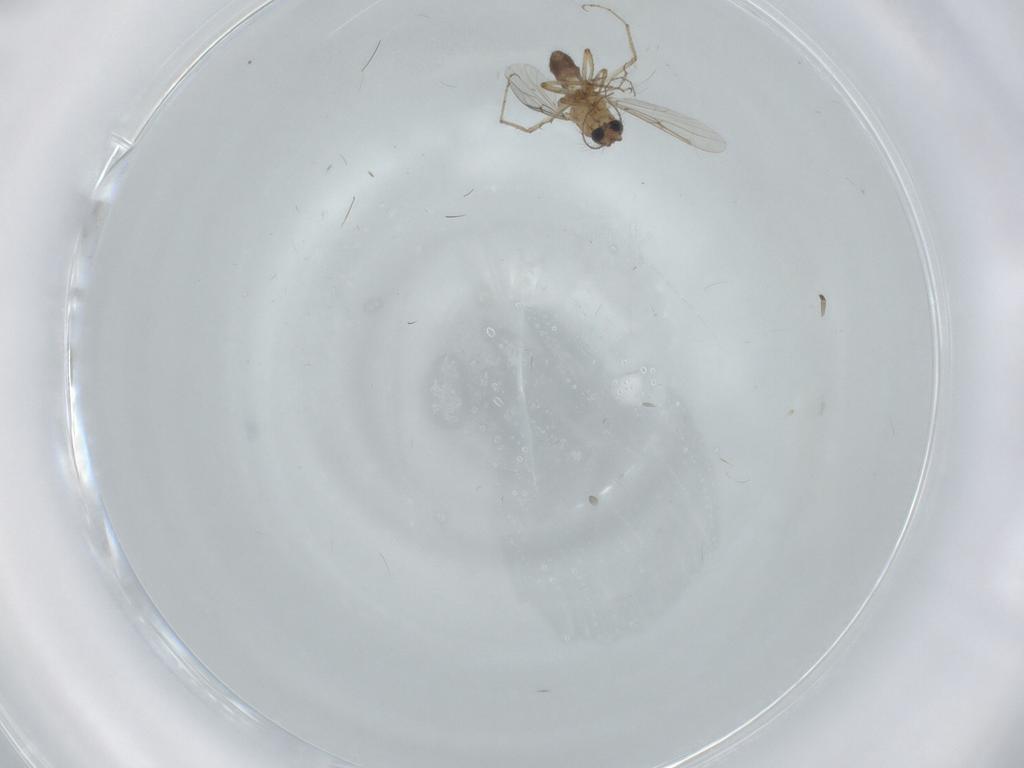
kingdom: Animalia
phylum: Arthropoda
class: Insecta
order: Diptera
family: Ceratopogonidae
